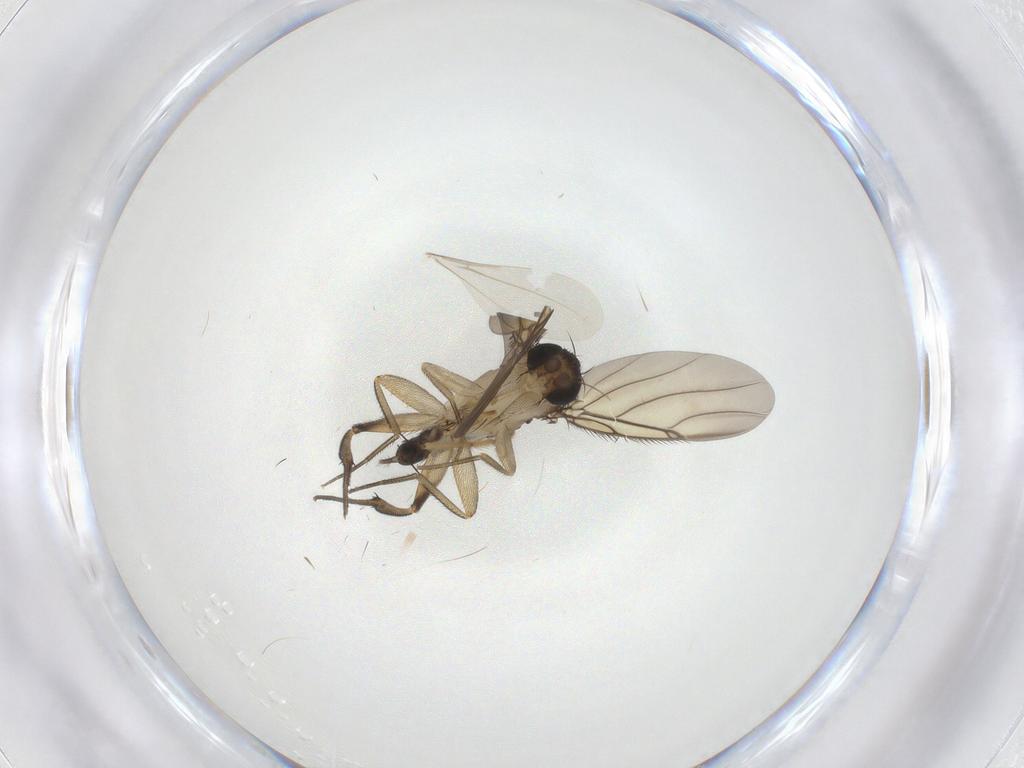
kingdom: Animalia
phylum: Arthropoda
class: Insecta
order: Diptera
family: Chironomidae
